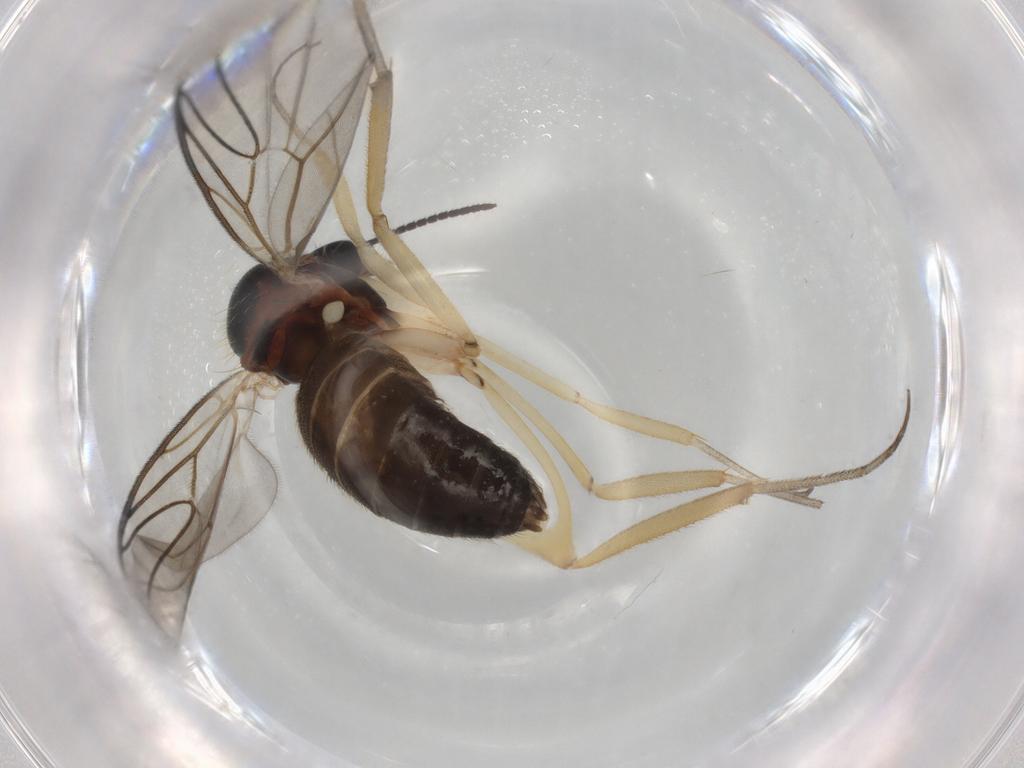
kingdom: Animalia
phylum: Arthropoda
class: Insecta
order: Diptera
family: Chironomidae
